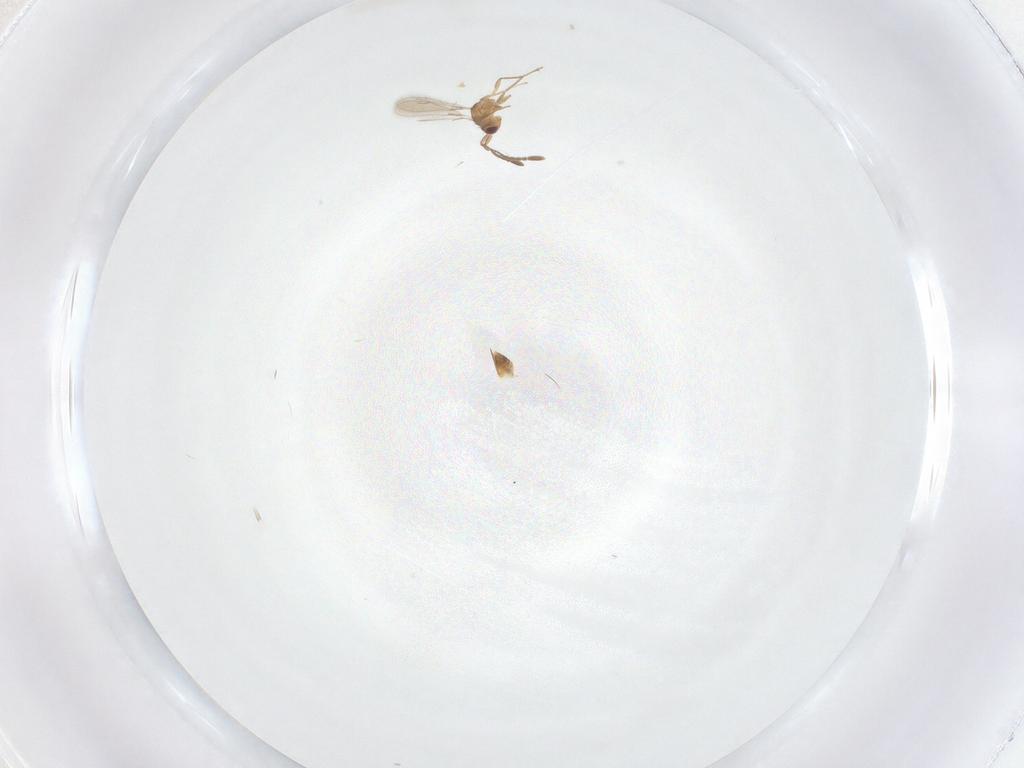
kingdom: Animalia
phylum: Arthropoda
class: Insecta
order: Hymenoptera
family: Mymaridae
